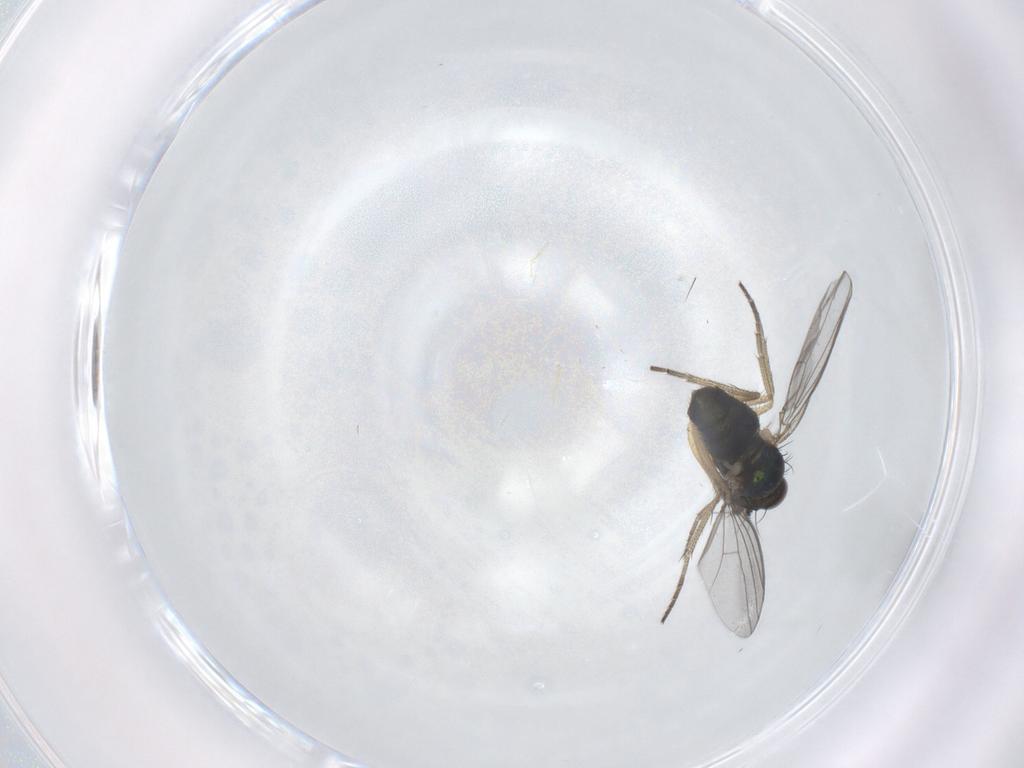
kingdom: Animalia
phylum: Arthropoda
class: Insecta
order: Diptera
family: Dolichopodidae
